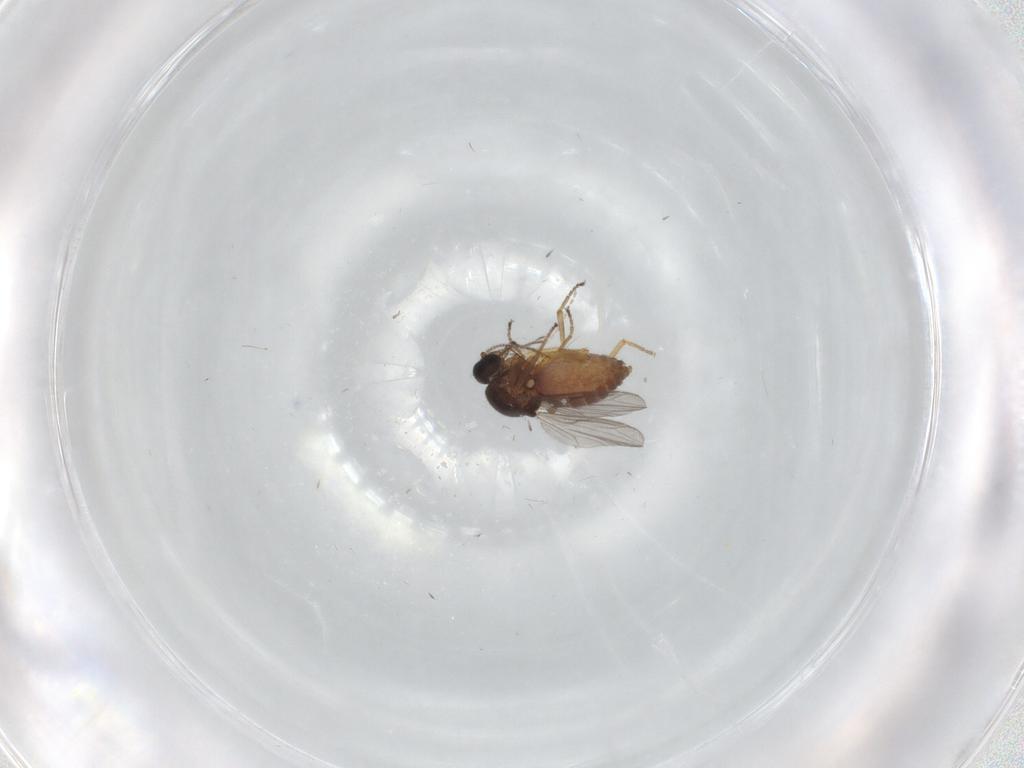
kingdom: Animalia
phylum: Arthropoda
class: Insecta
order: Diptera
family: Ceratopogonidae
